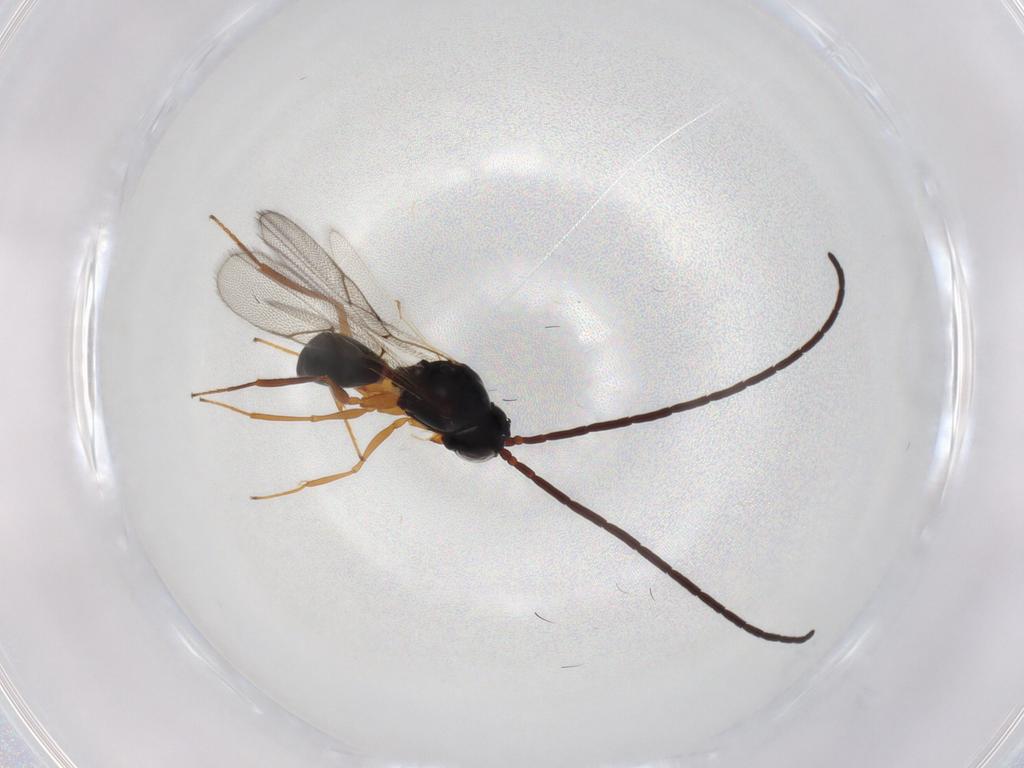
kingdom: Animalia
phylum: Arthropoda
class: Insecta
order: Hymenoptera
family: Figitidae
